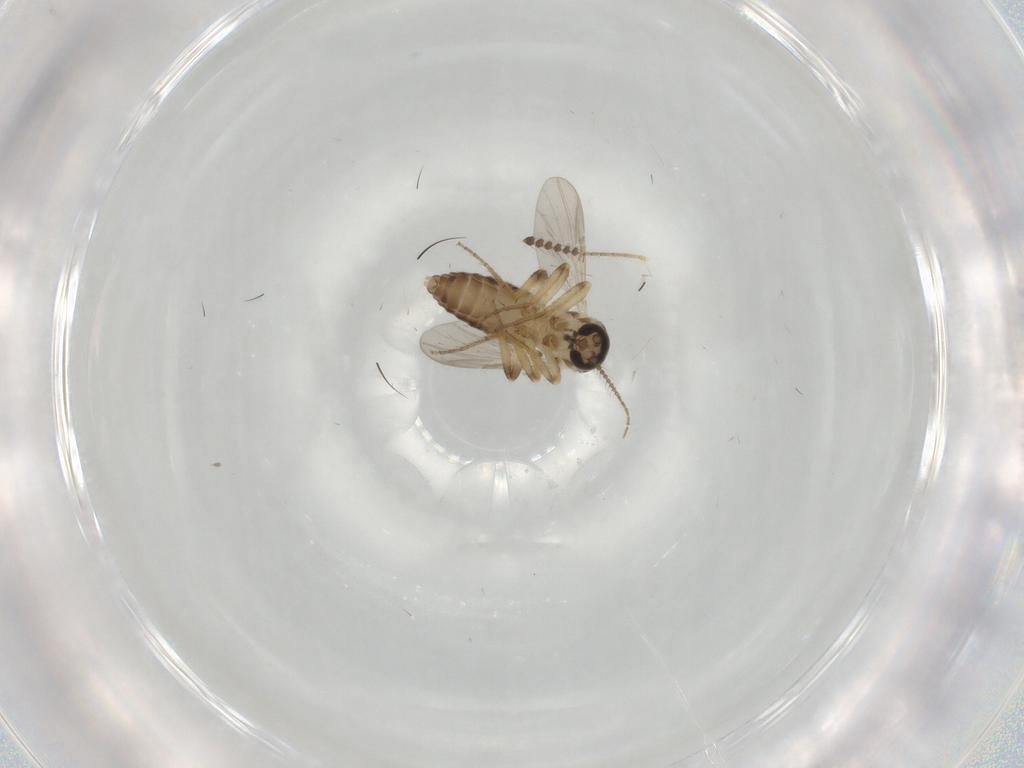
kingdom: Animalia
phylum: Arthropoda
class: Insecta
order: Diptera
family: Ceratopogonidae
